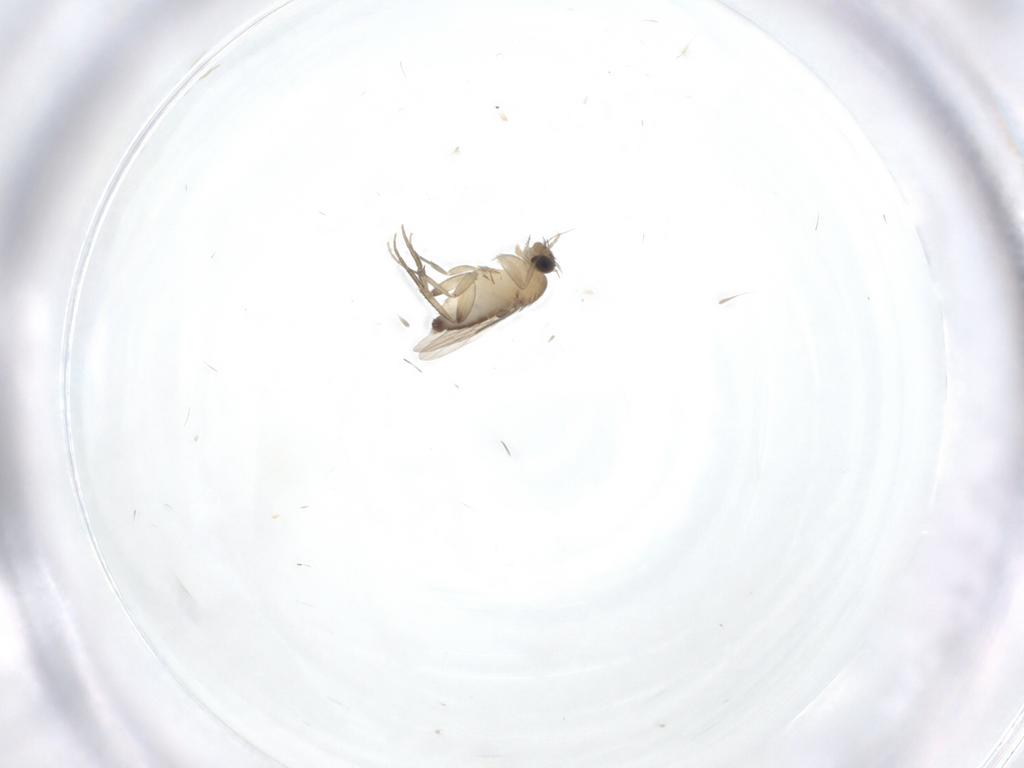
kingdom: Animalia
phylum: Arthropoda
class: Insecta
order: Diptera
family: Phoridae
